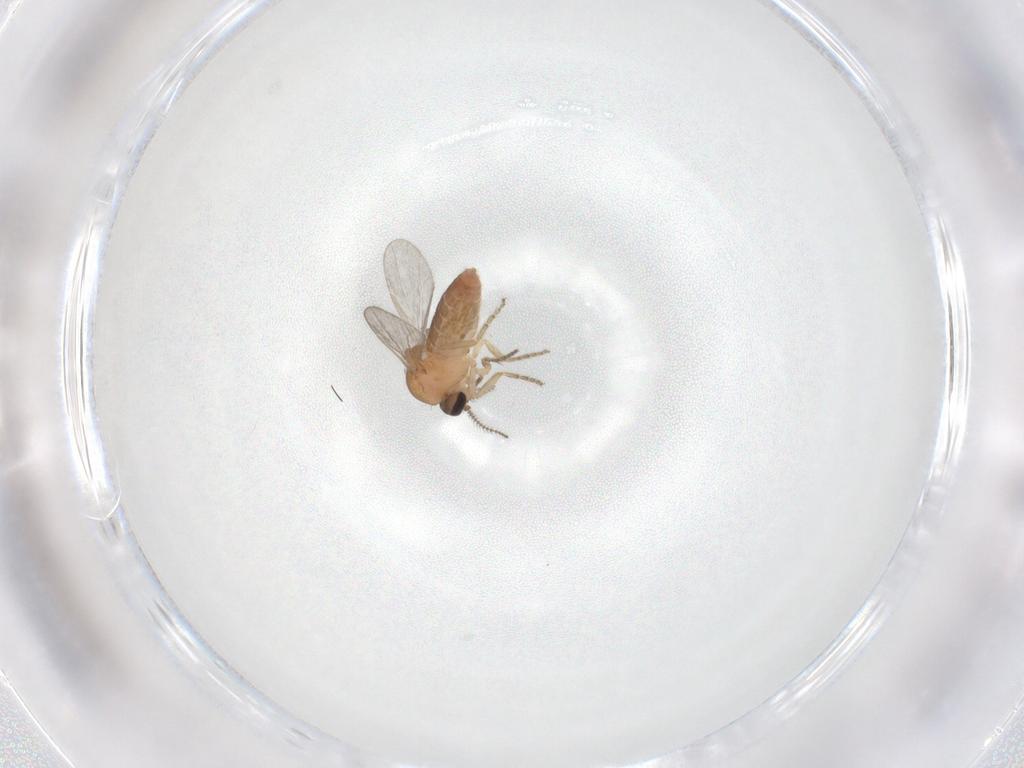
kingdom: Animalia
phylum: Arthropoda
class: Insecta
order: Diptera
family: Ceratopogonidae
